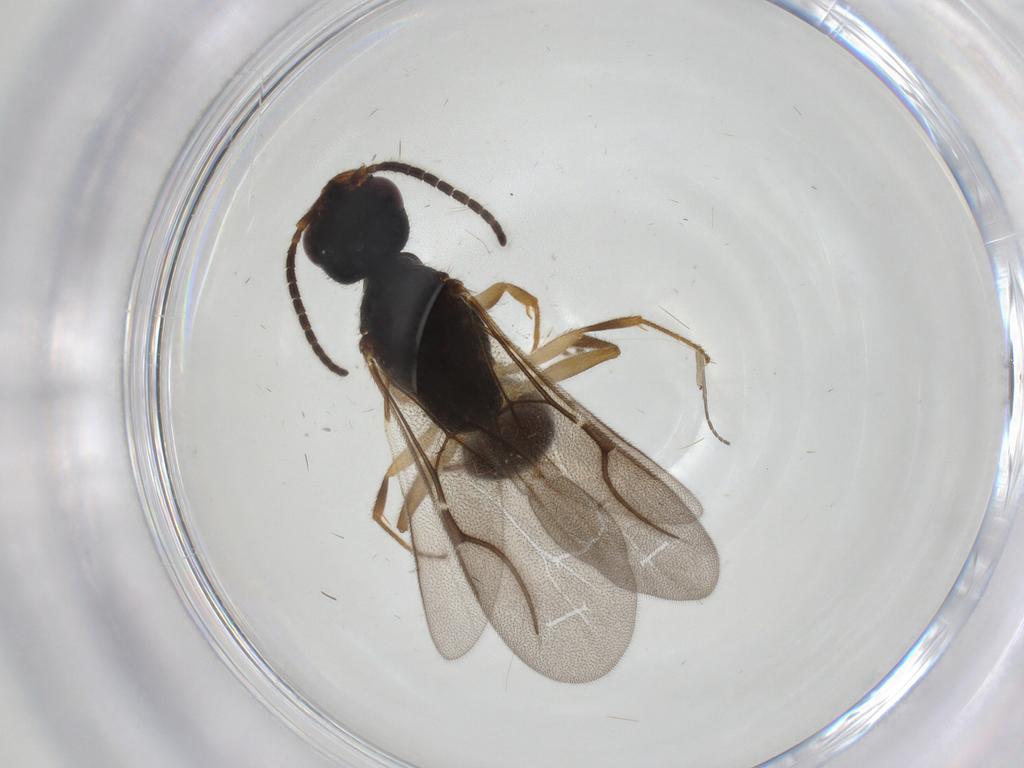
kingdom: Animalia
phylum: Arthropoda
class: Insecta
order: Hymenoptera
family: Bethylidae
